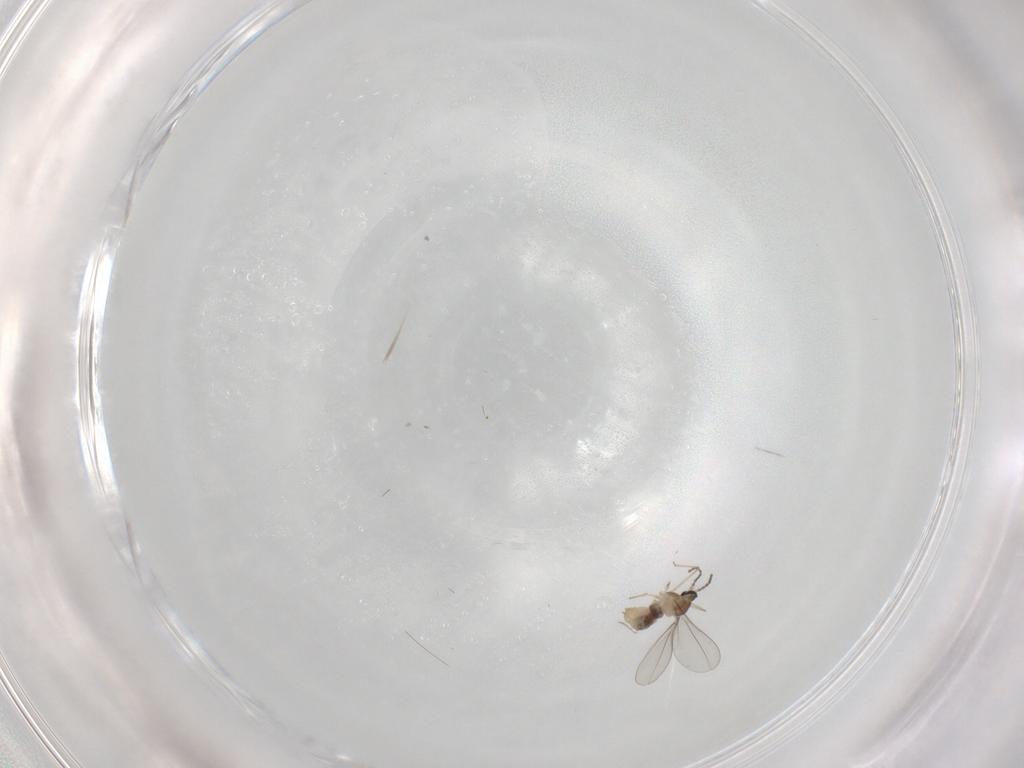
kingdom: Animalia
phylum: Arthropoda
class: Insecta
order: Diptera
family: Cecidomyiidae
